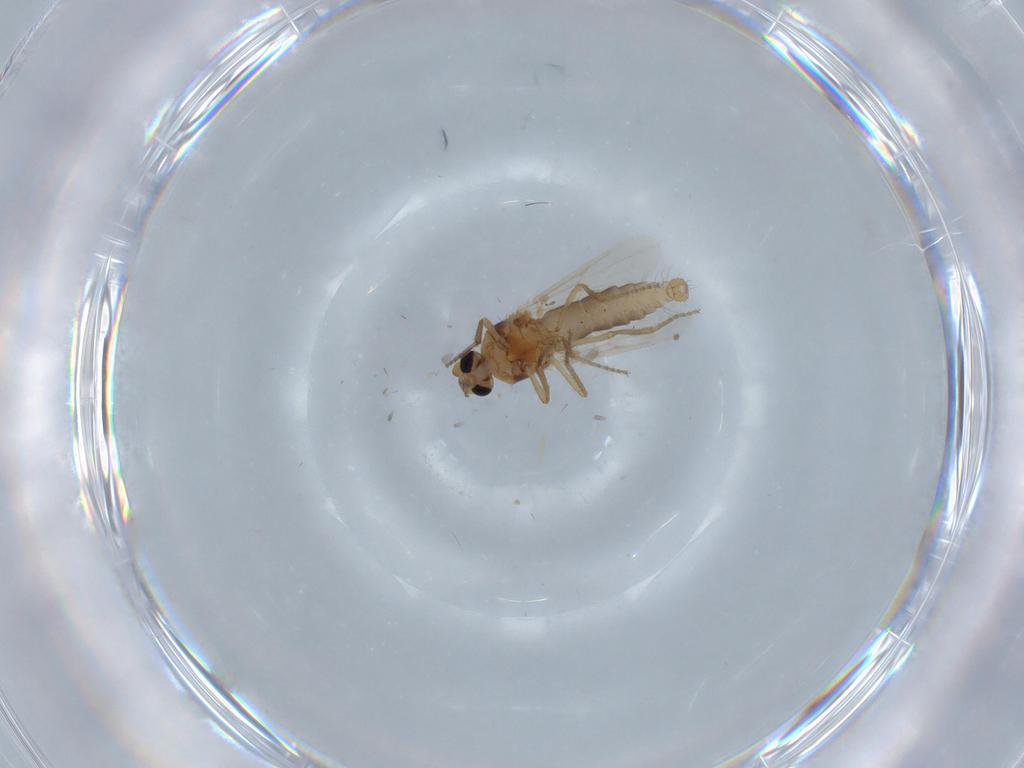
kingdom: Animalia
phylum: Arthropoda
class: Insecta
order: Diptera
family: Ceratopogonidae
